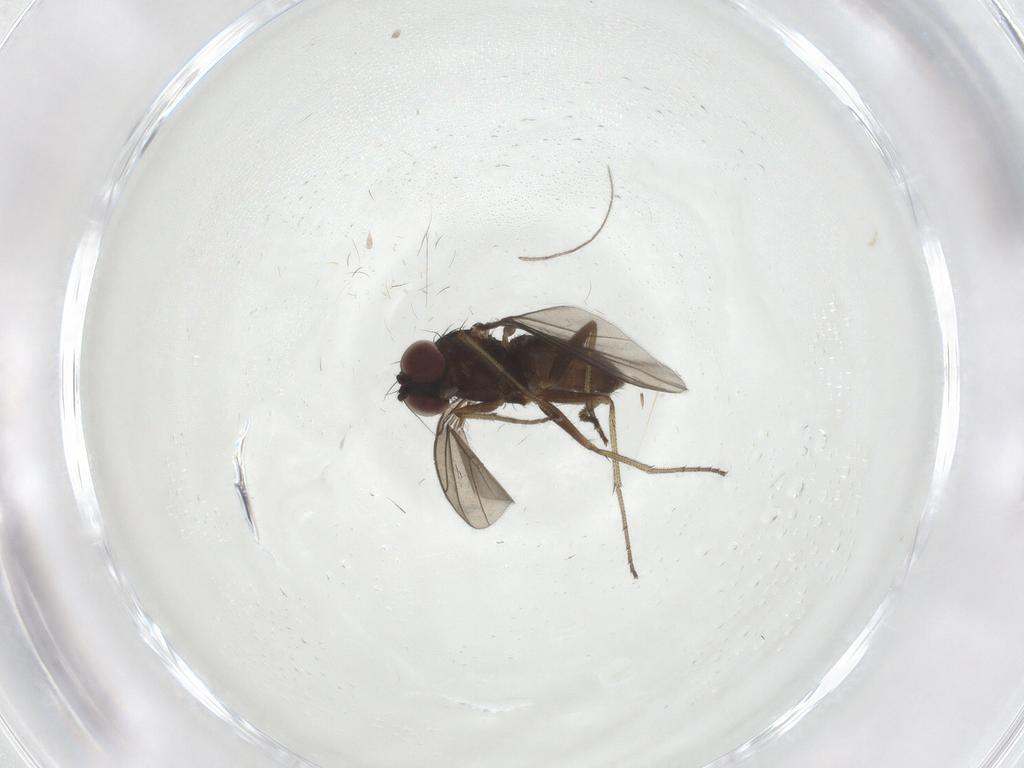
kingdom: Animalia
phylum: Arthropoda
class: Insecta
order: Diptera
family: Dolichopodidae
